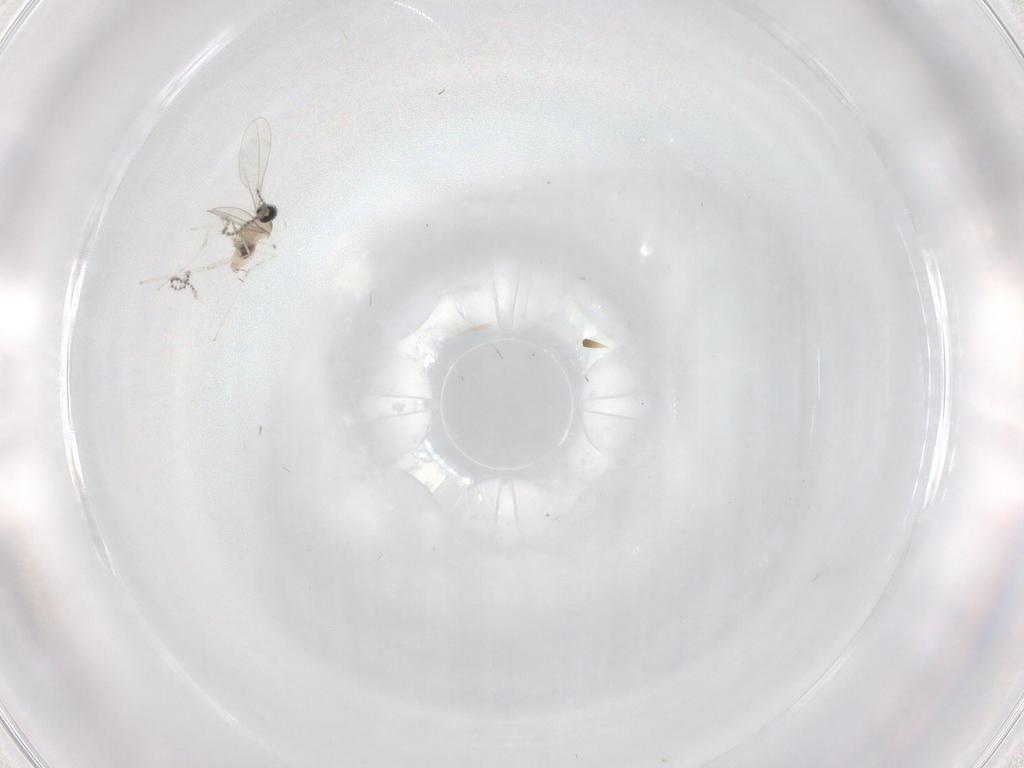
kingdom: Animalia
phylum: Arthropoda
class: Insecta
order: Diptera
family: Cecidomyiidae
